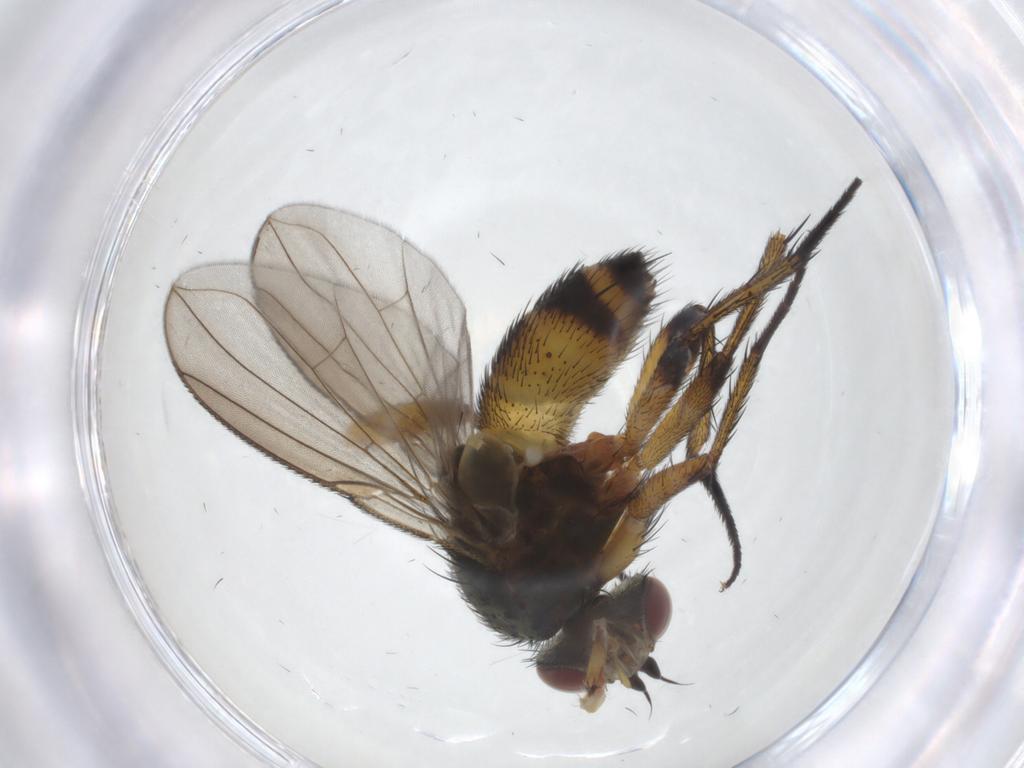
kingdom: Animalia
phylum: Arthropoda
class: Insecta
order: Diptera
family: Tachinidae
